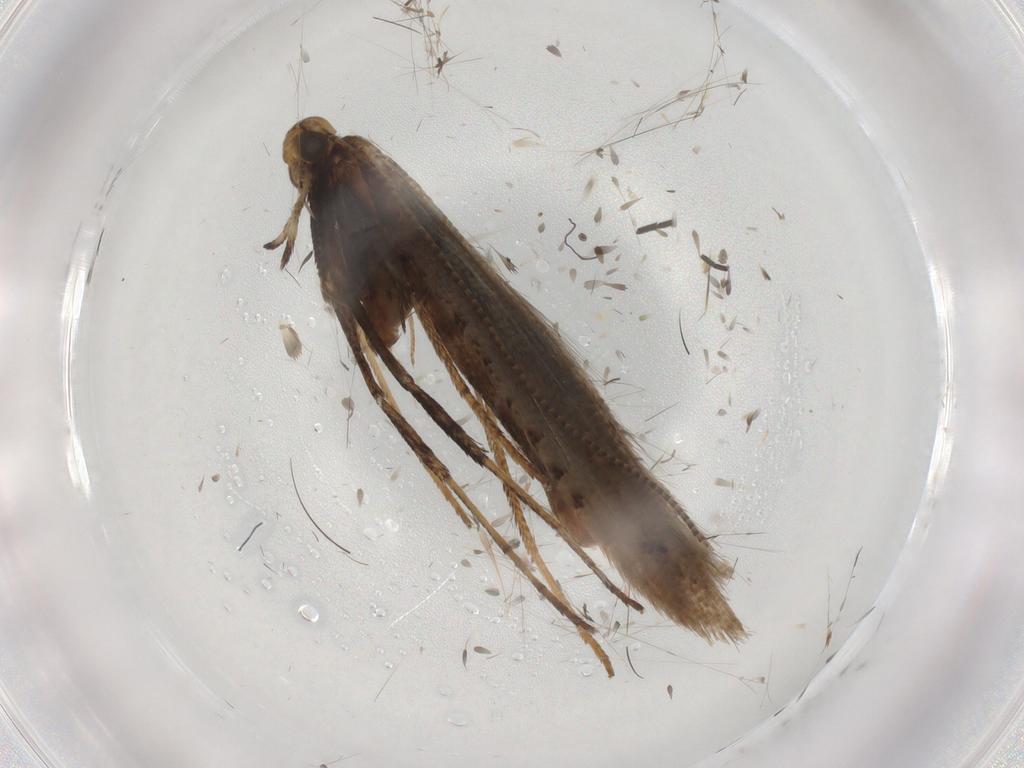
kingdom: Animalia
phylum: Arthropoda
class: Insecta
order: Lepidoptera
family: Gracillariidae
